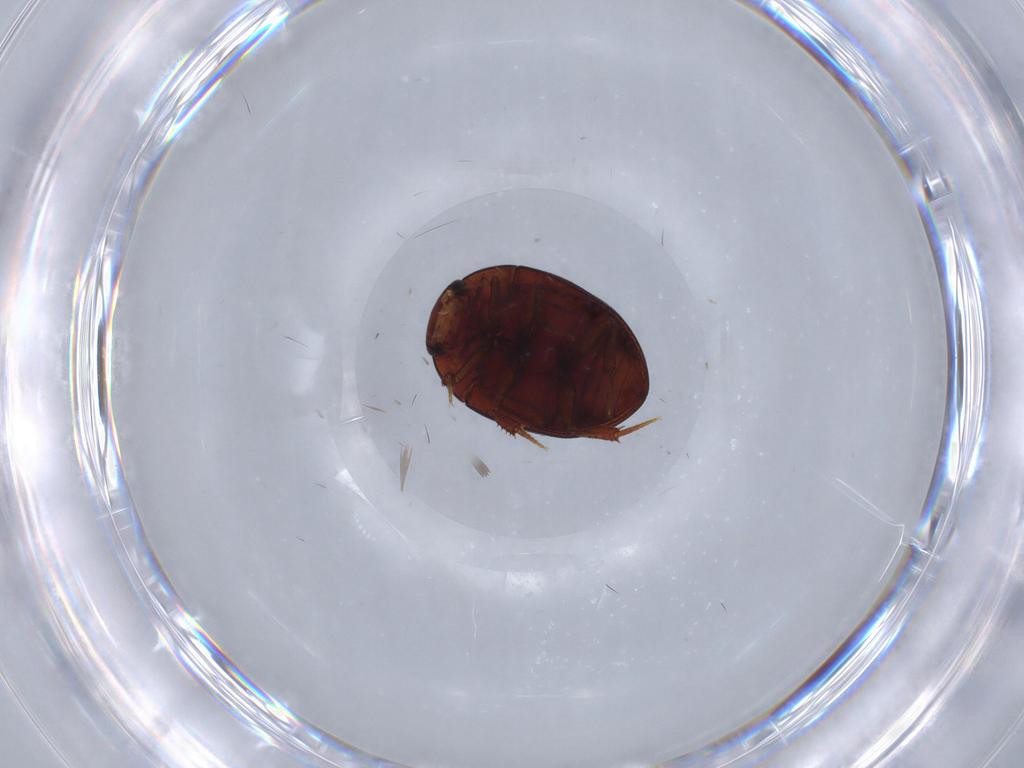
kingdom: Animalia
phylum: Arthropoda
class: Insecta
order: Coleoptera
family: Hydrophilidae
